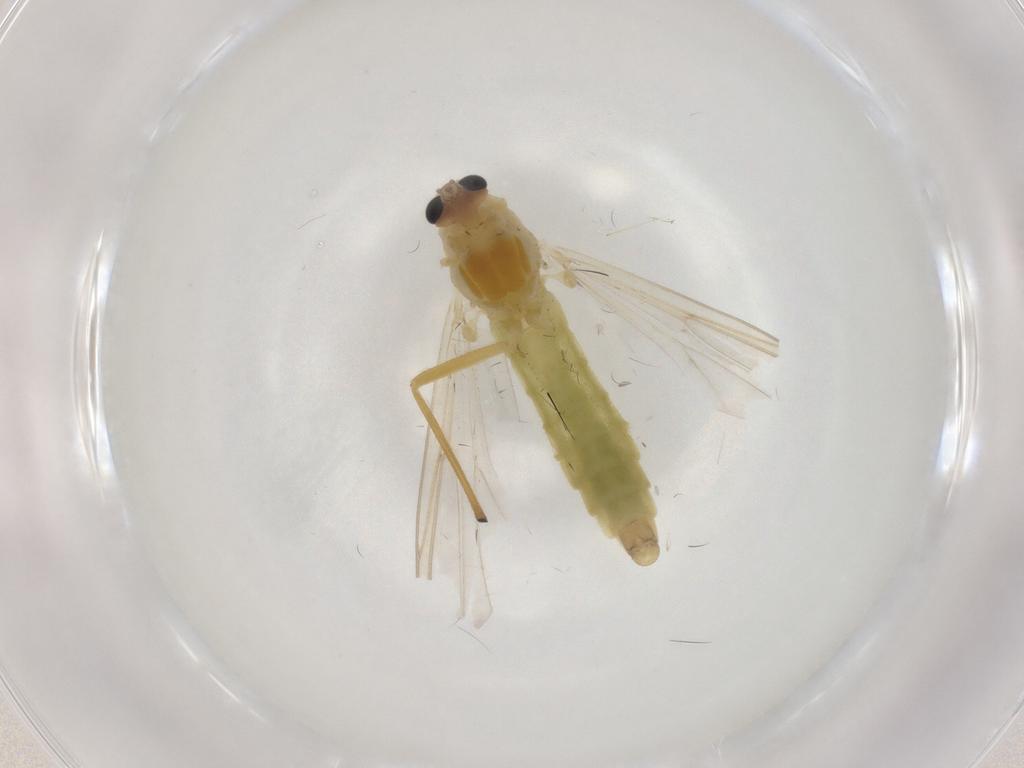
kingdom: Animalia
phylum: Arthropoda
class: Insecta
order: Diptera
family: Chironomidae
